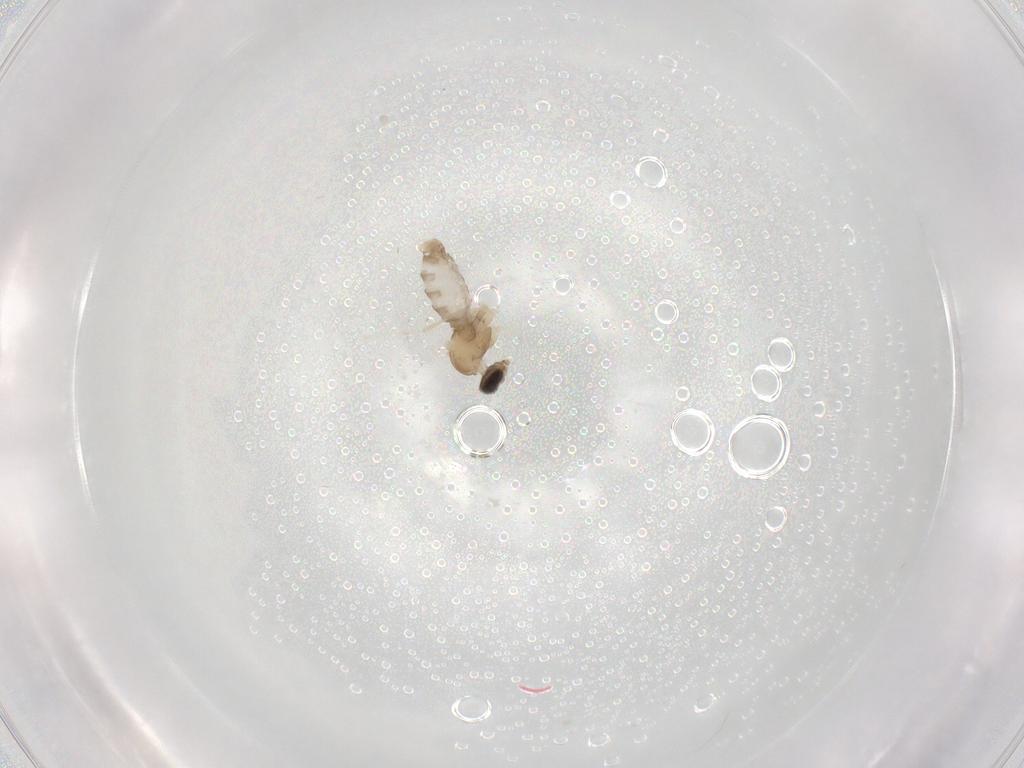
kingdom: Animalia
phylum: Arthropoda
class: Insecta
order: Diptera
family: Cecidomyiidae
